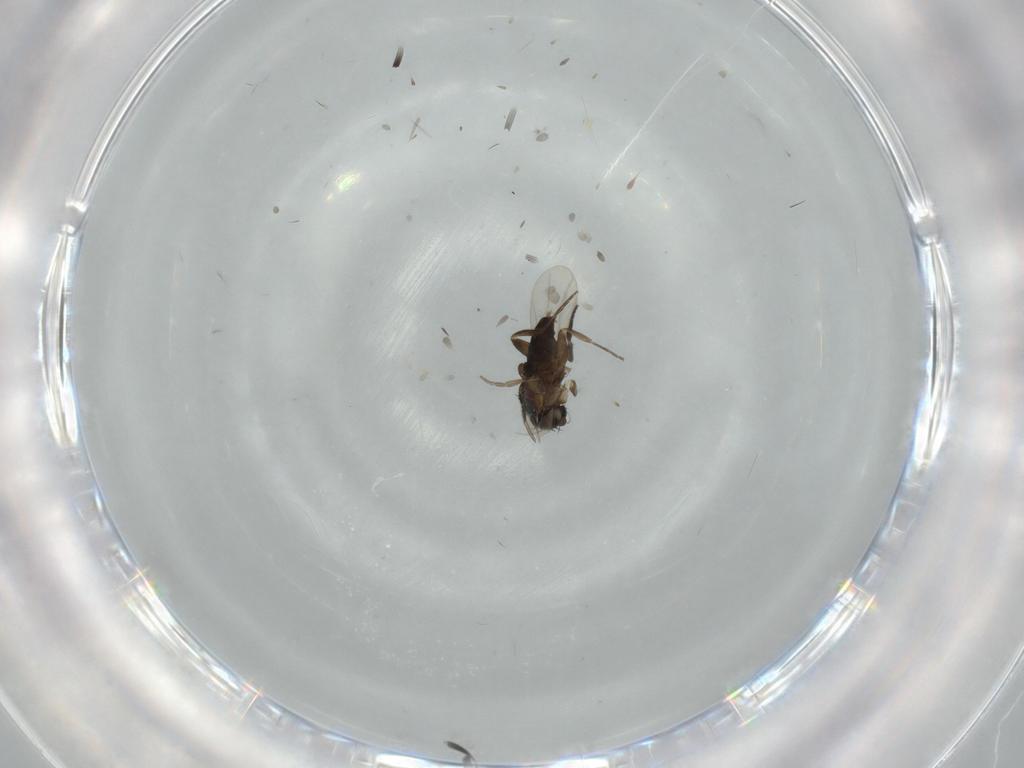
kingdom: Animalia
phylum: Arthropoda
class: Insecta
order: Diptera
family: Phoridae
